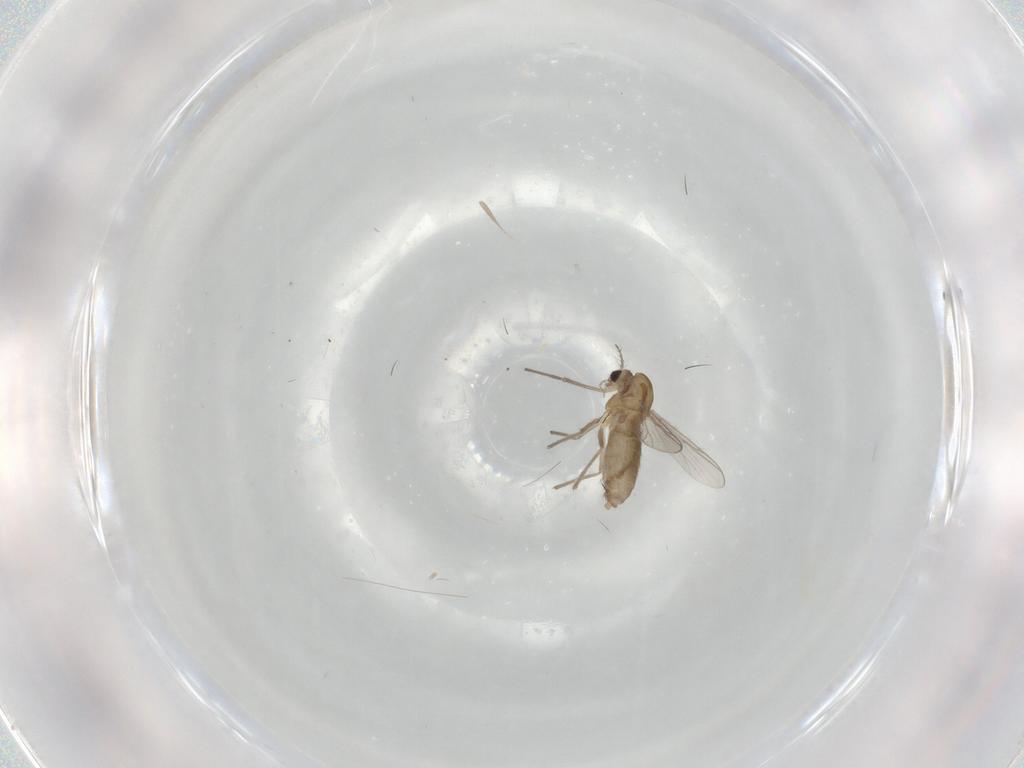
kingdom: Animalia
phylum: Arthropoda
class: Insecta
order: Diptera
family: Chironomidae
